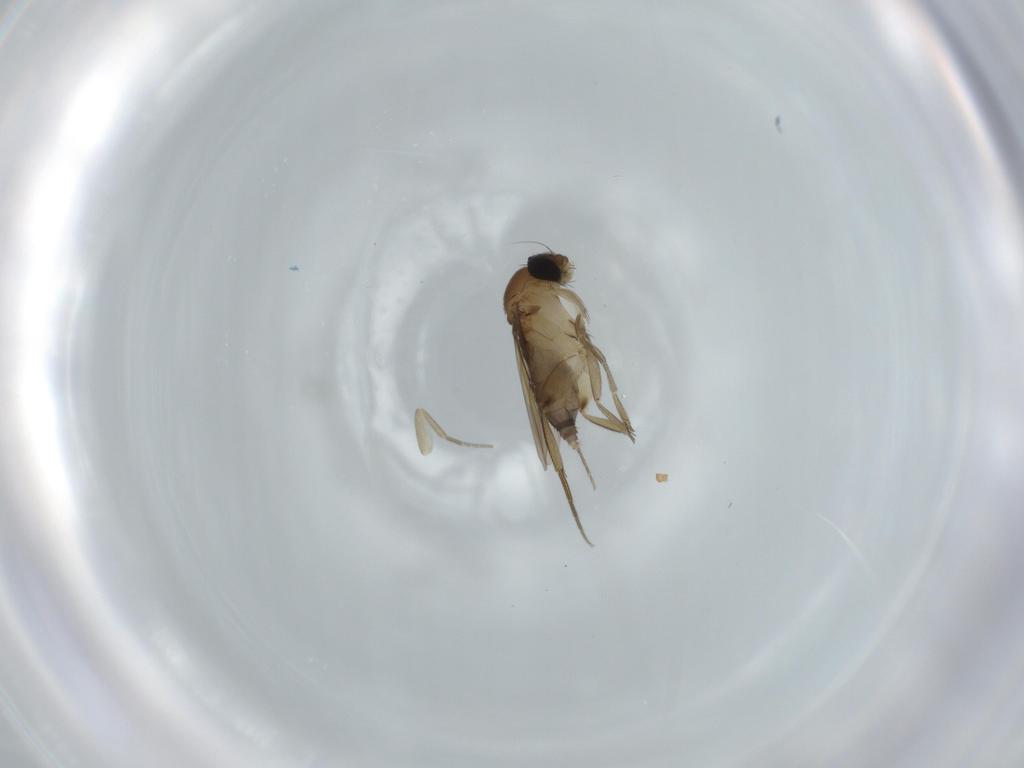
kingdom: Animalia
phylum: Arthropoda
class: Insecta
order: Diptera
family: Phoridae
